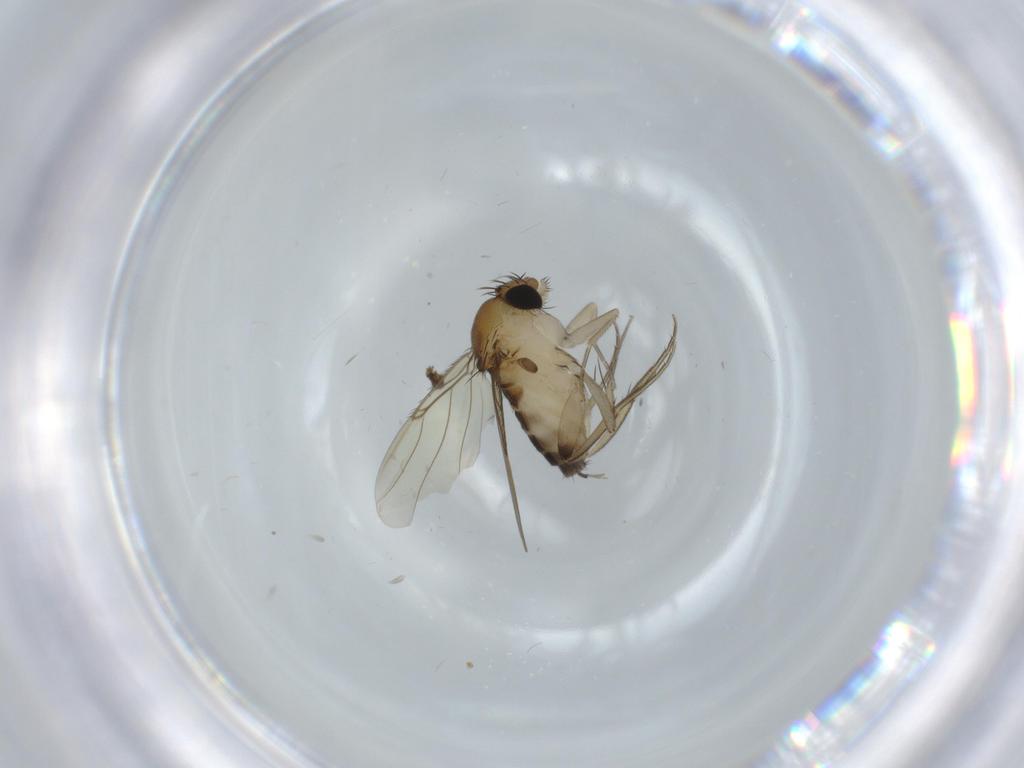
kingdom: Animalia
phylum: Arthropoda
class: Insecta
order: Diptera
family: Phoridae
